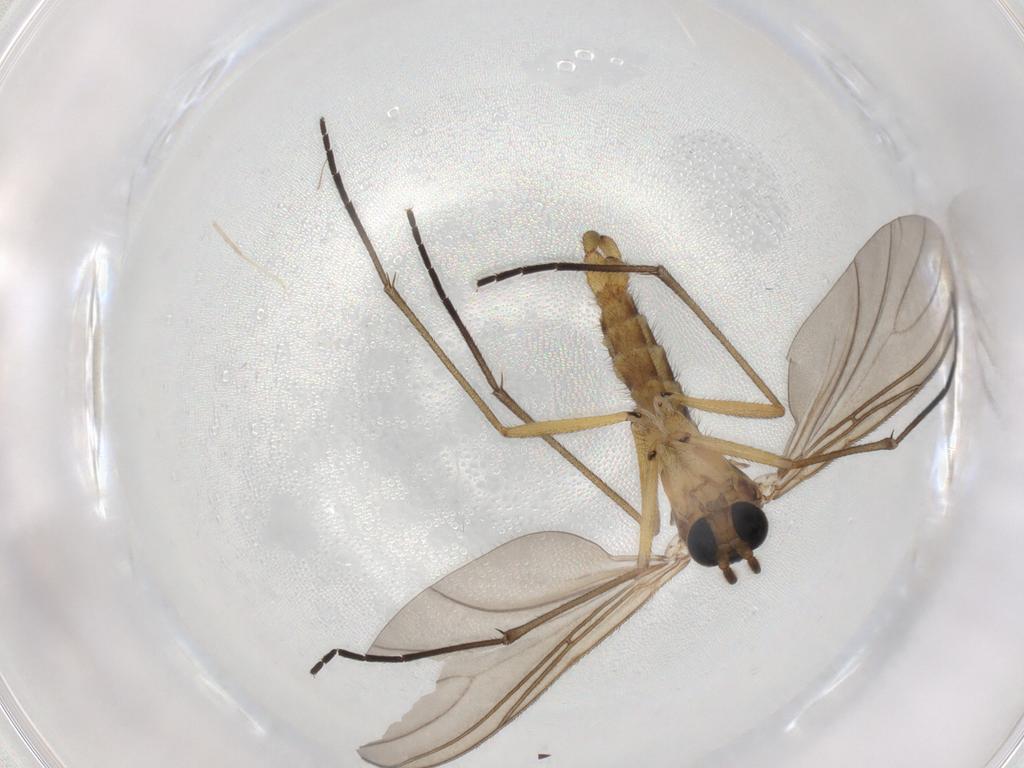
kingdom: Animalia
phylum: Arthropoda
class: Insecta
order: Diptera
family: Sciaridae
